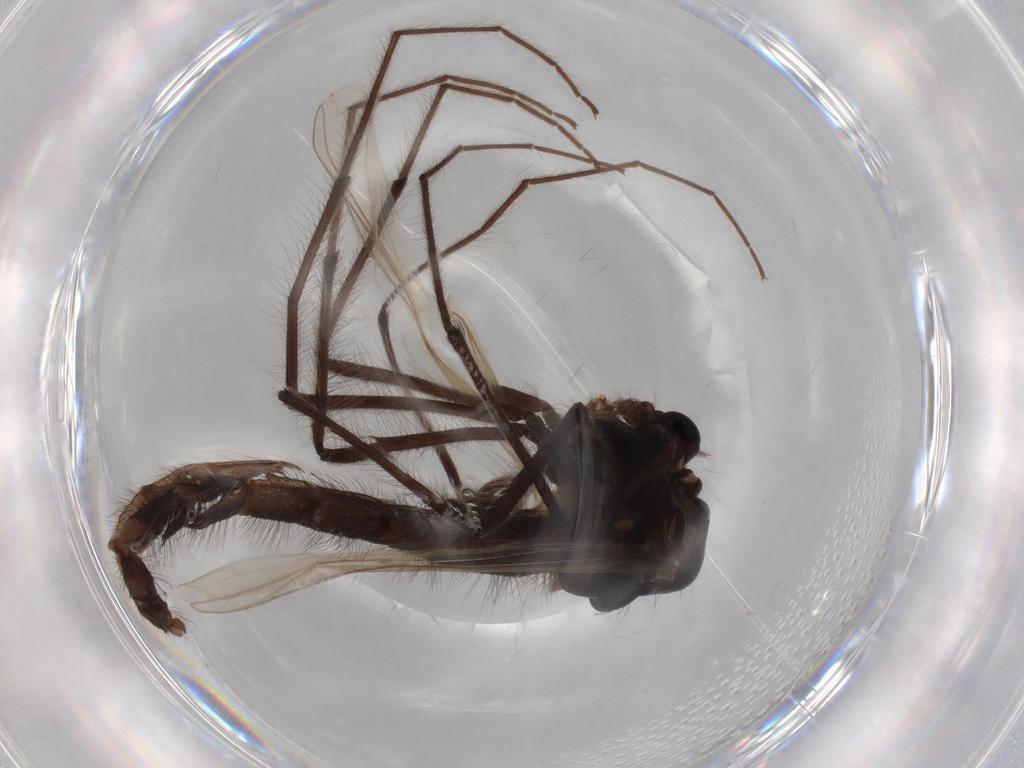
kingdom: Animalia
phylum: Arthropoda
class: Insecta
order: Diptera
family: Chironomidae
